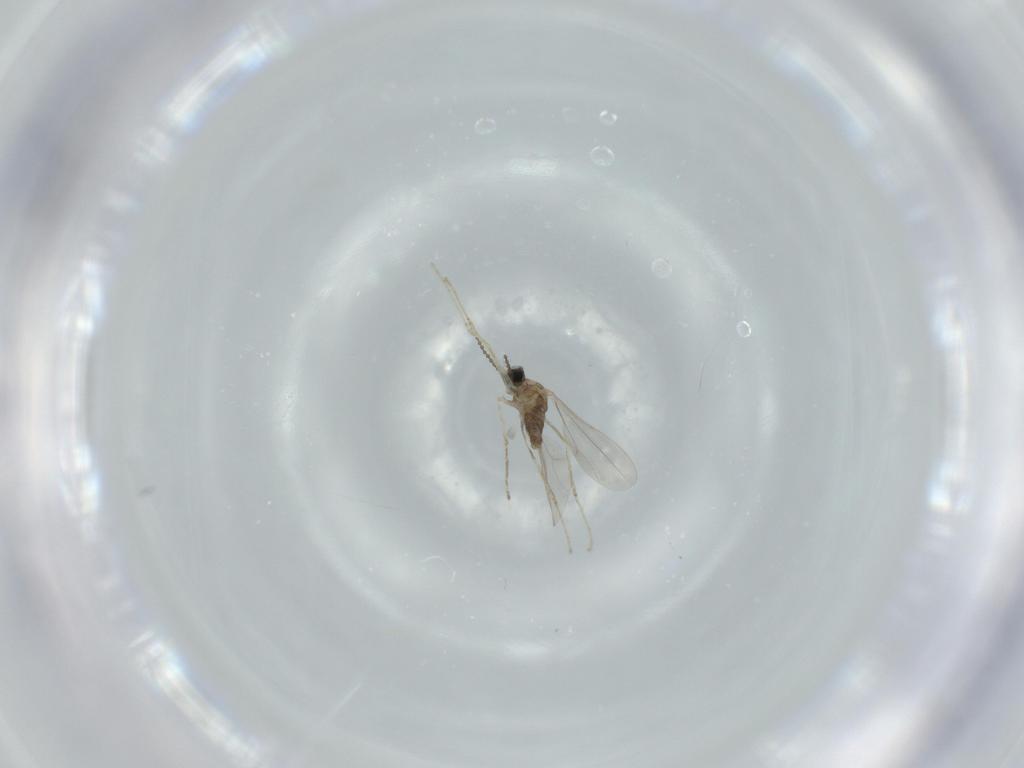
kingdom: Animalia
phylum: Arthropoda
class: Insecta
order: Diptera
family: Cecidomyiidae
